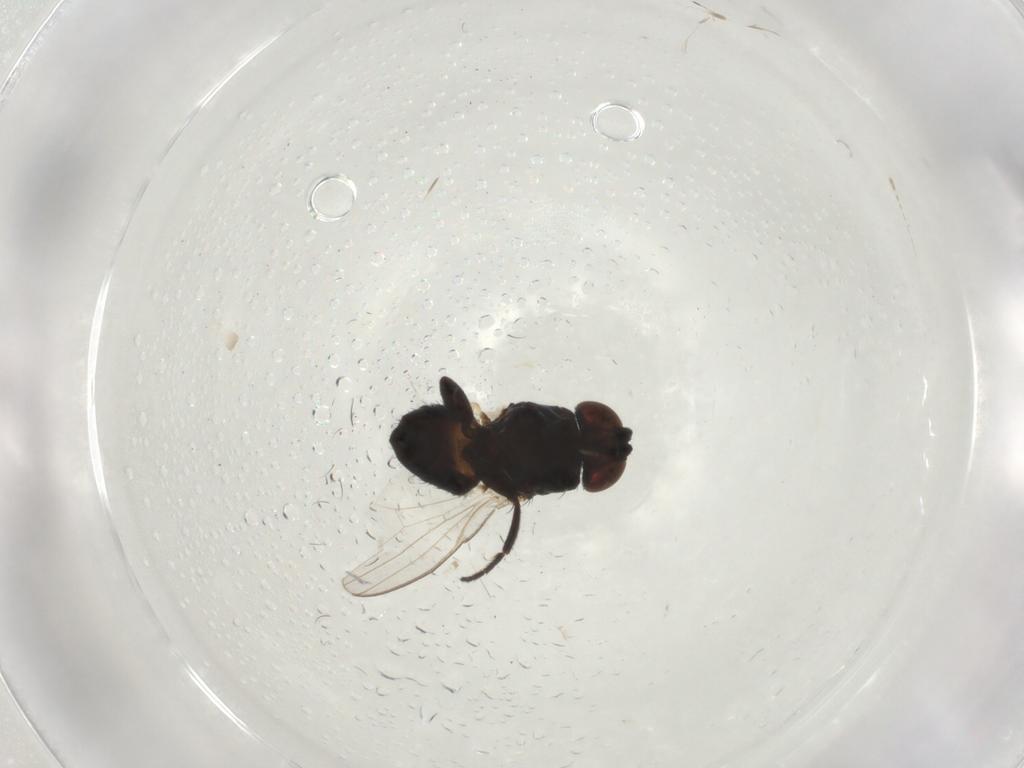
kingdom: Animalia
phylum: Arthropoda
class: Insecta
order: Diptera
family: Milichiidae
